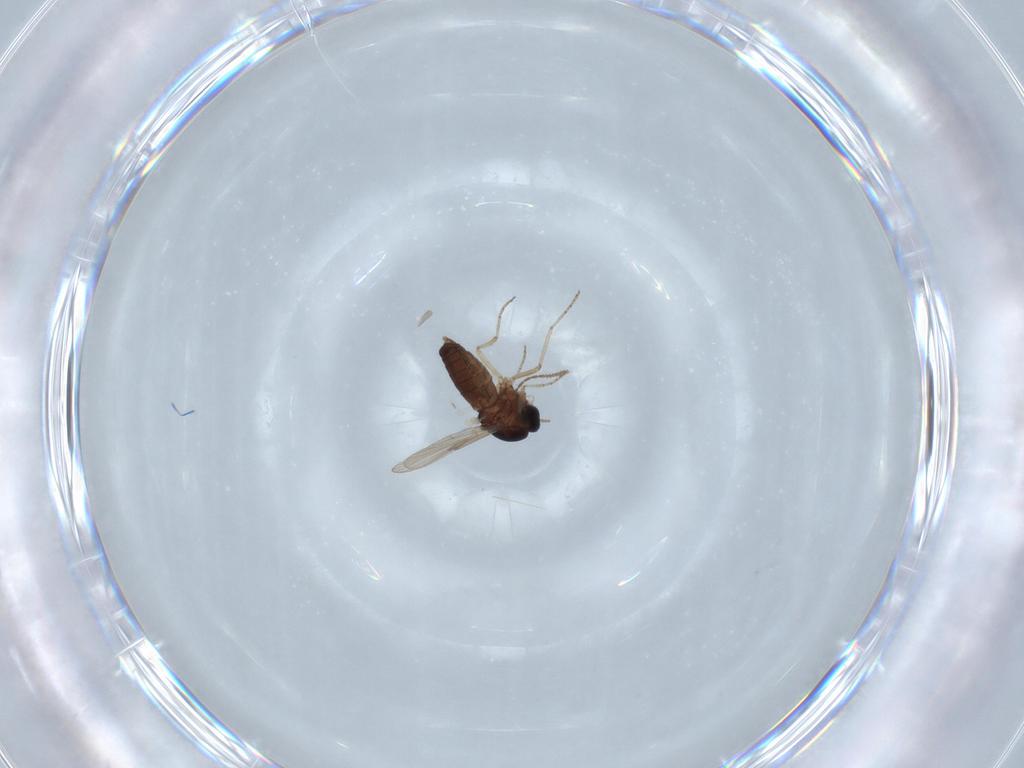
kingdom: Animalia
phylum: Arthropoda
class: Insecta
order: Diptera
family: Ceratopogonidae
